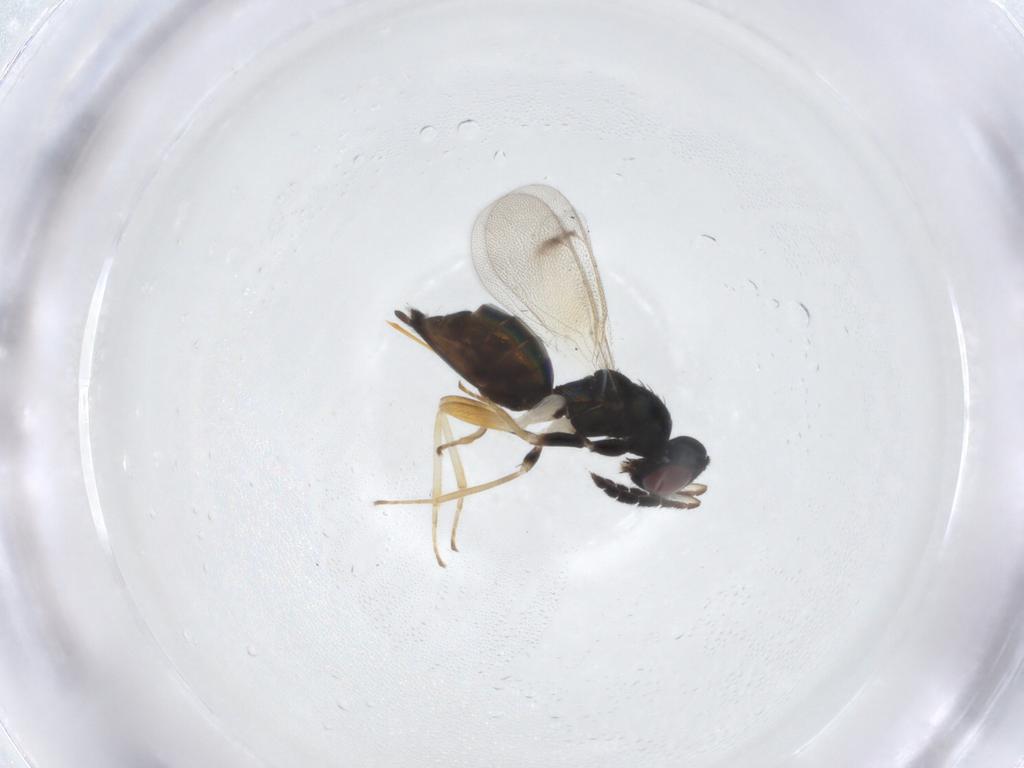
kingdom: Animalia
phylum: Arthropoda
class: Insecta
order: Hymenoptera
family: Eulophidae
